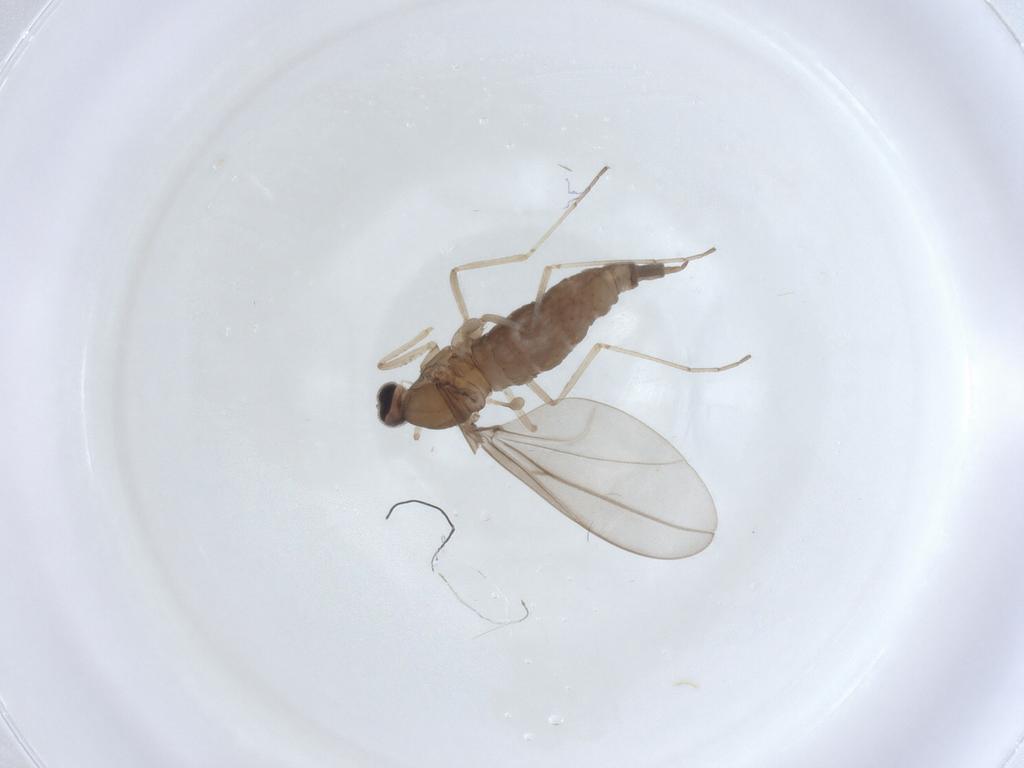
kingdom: Animalia
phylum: Arthropoda
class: Insecta
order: Diptera
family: Cecidomyiidae
